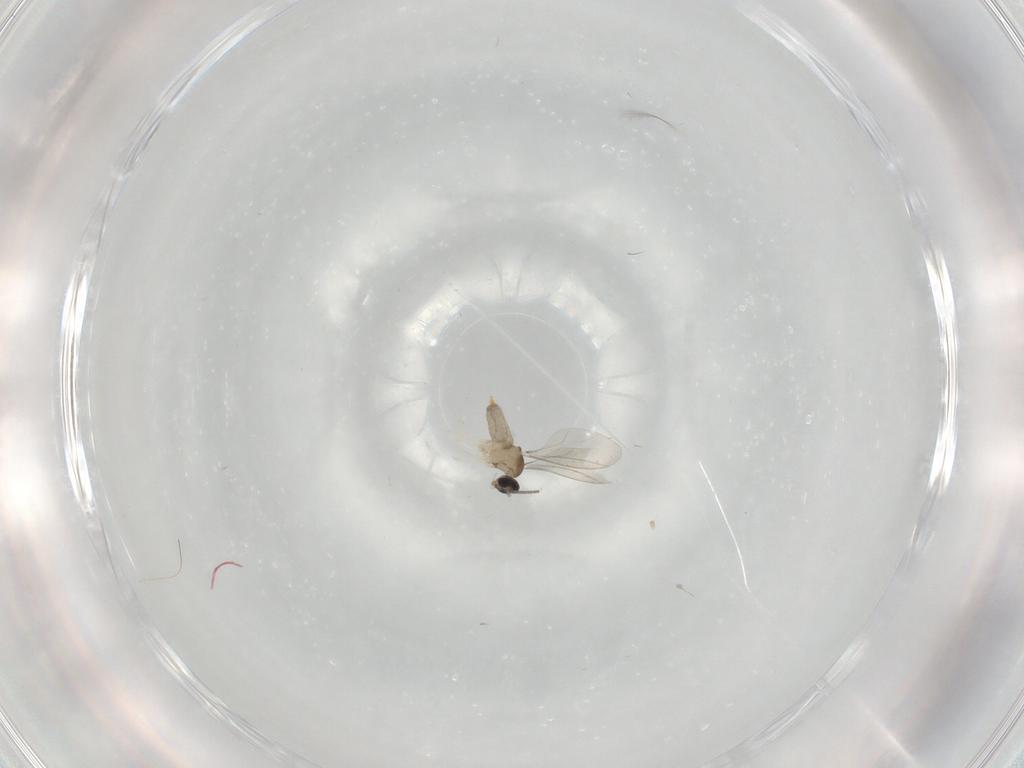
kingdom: Animalia
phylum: Arthropoda
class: Insecta
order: Diptera
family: Cecidomyiidae
